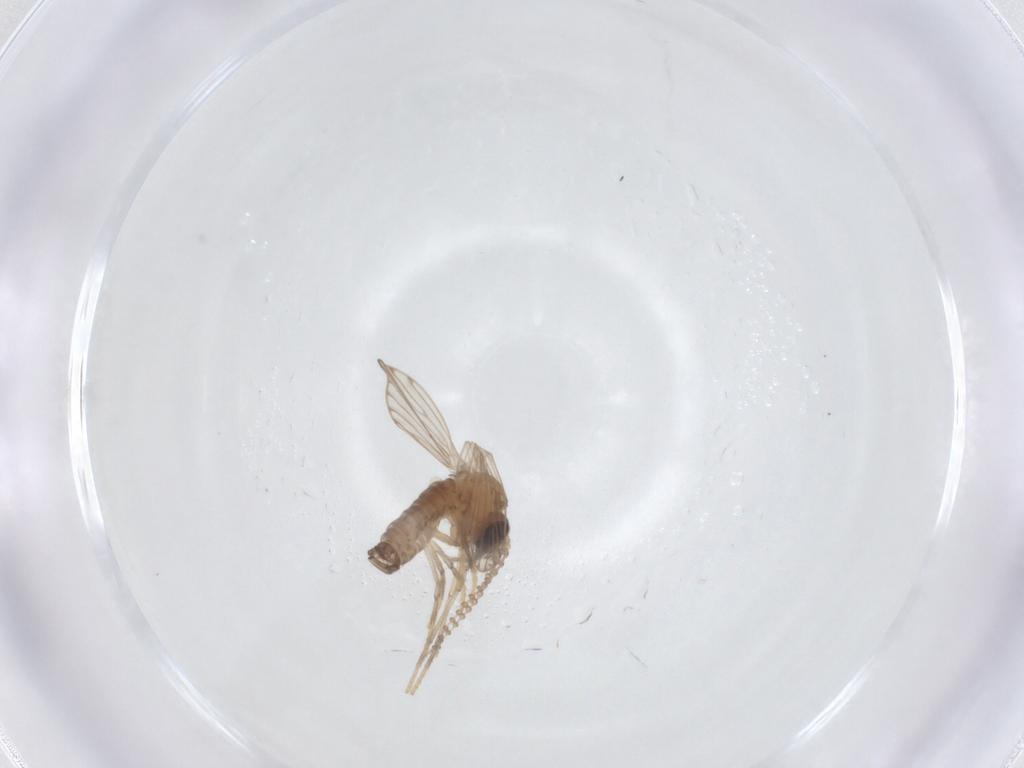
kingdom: Animalia
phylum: Arthropoda
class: Insecta
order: Diptera
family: Psychodidae
